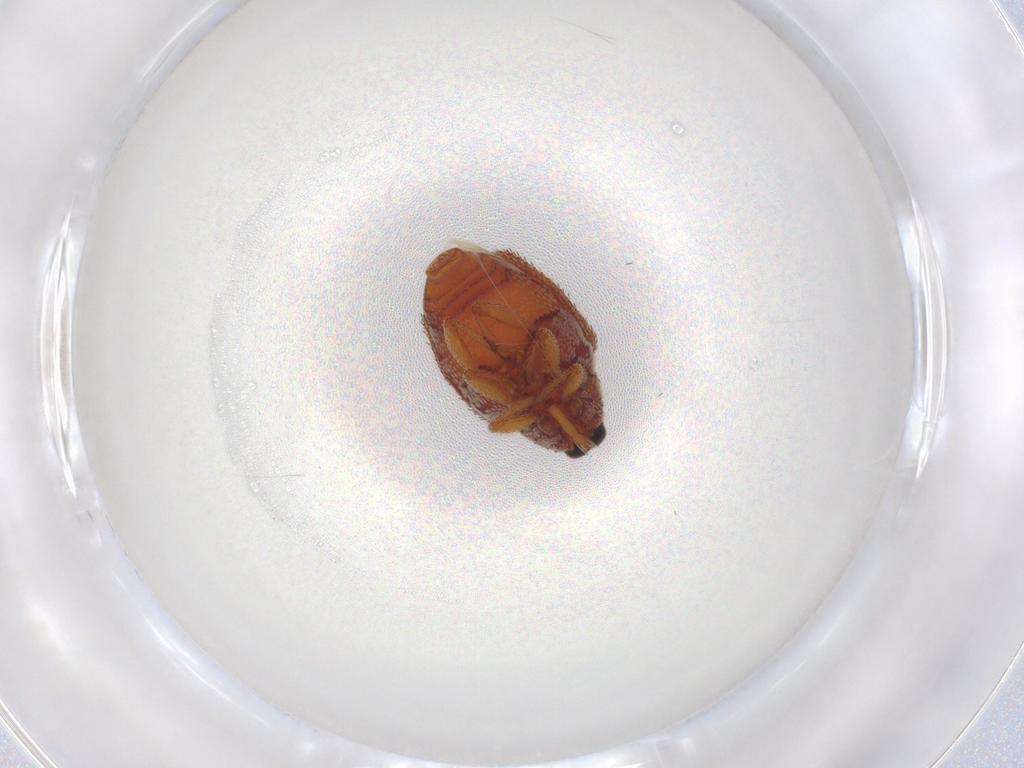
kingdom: Animalia
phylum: Arthropoda
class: Insecta
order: Coleoptera
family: Curculionidae
